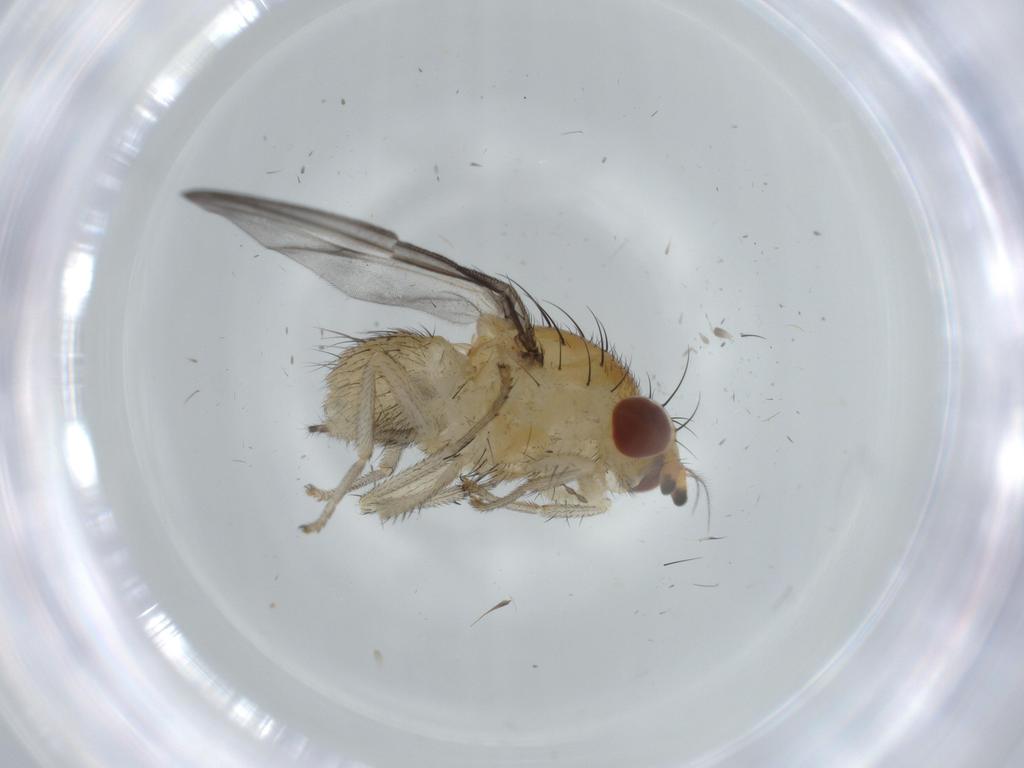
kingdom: Animalia
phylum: Arthropoda
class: Insecta
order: Diptera
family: Lauxaniidae
